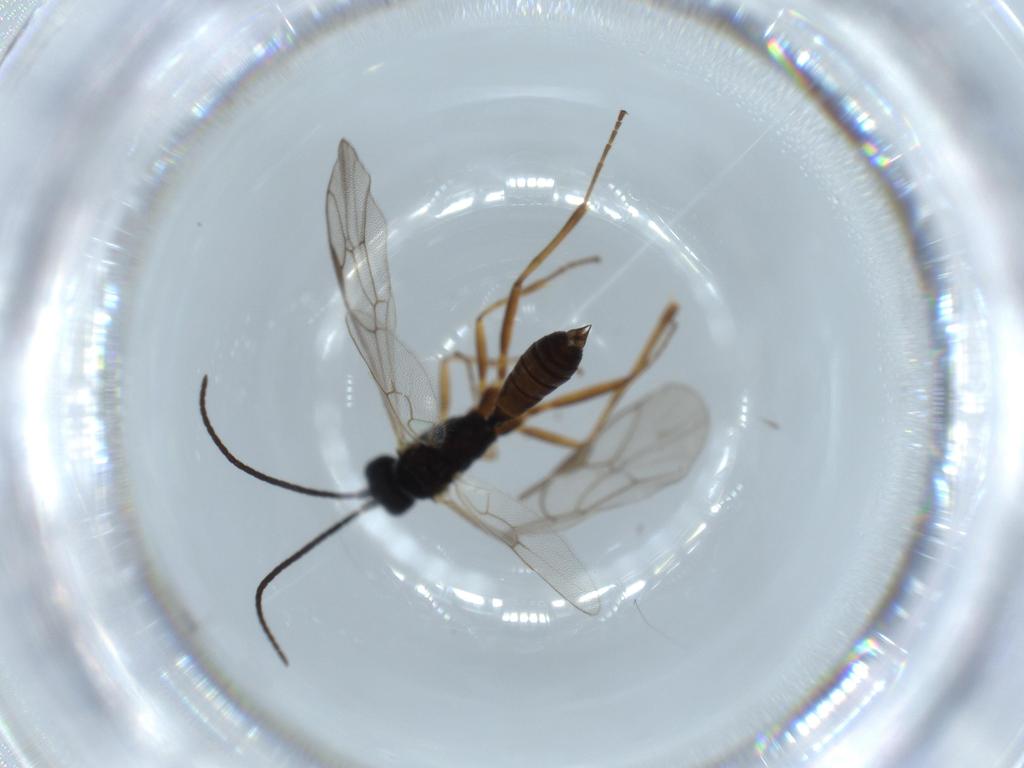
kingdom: Animalia
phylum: Arthropoda
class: Insecta
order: Hymenoptera
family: Ichneumonidae
